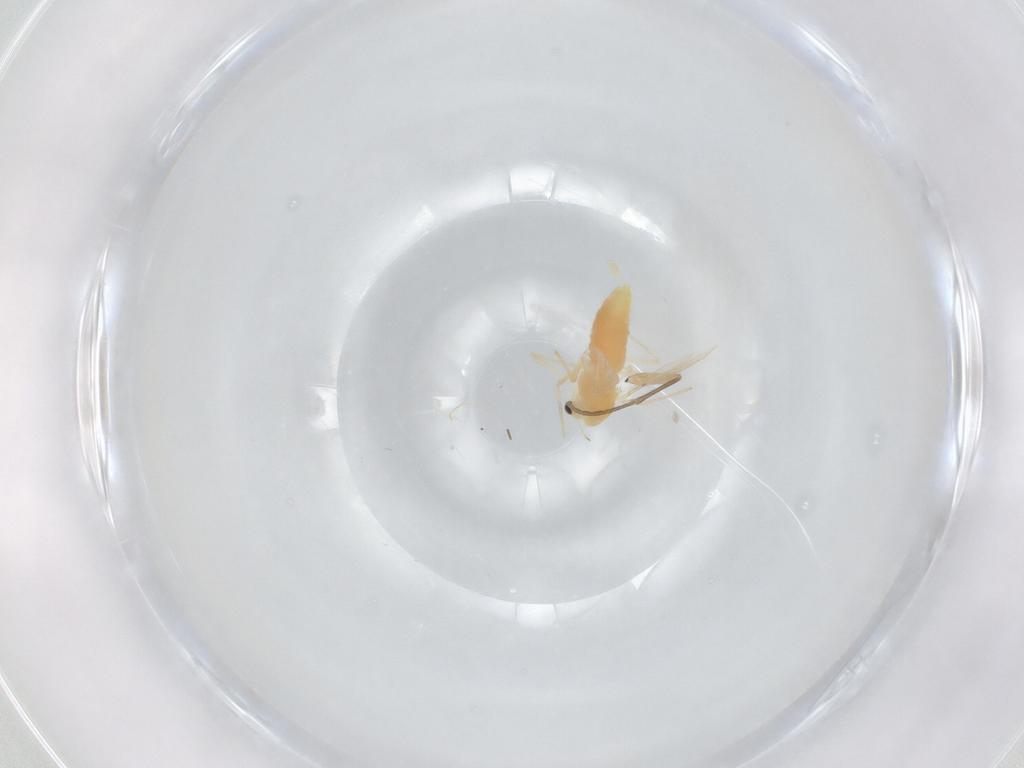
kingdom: Animalia
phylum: Arthropoda
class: Insecta
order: Diptera
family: Chironomidae
